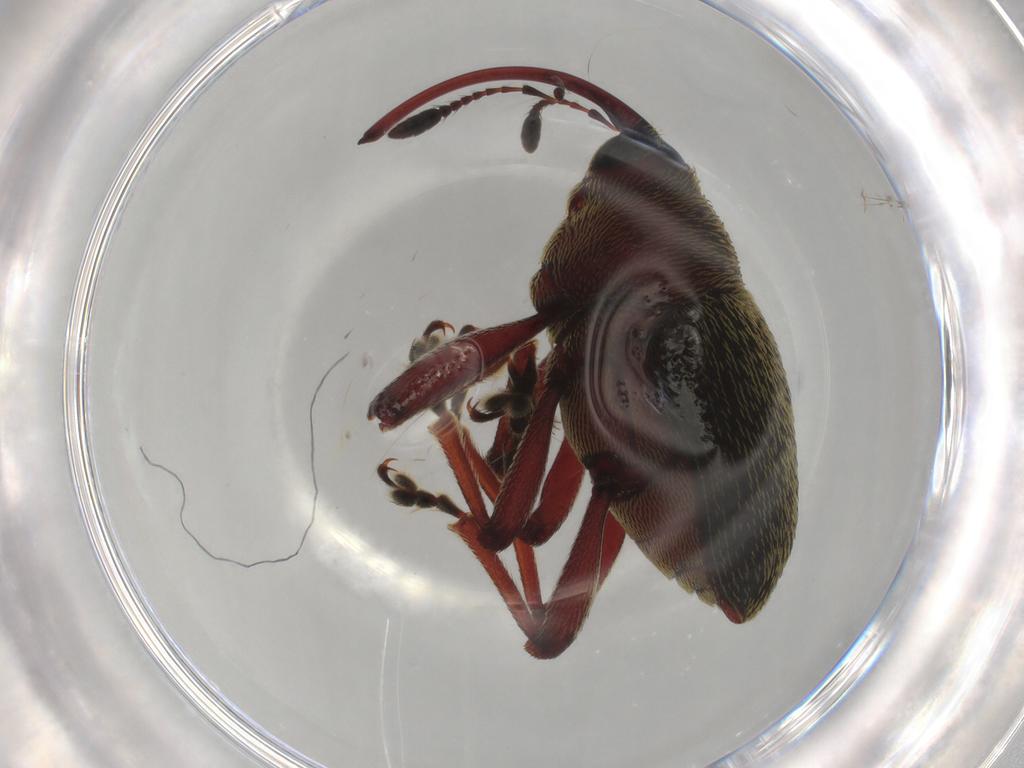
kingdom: Animalia
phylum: Arthropoda
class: Insecta
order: Coleoptera
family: Curculionidae
